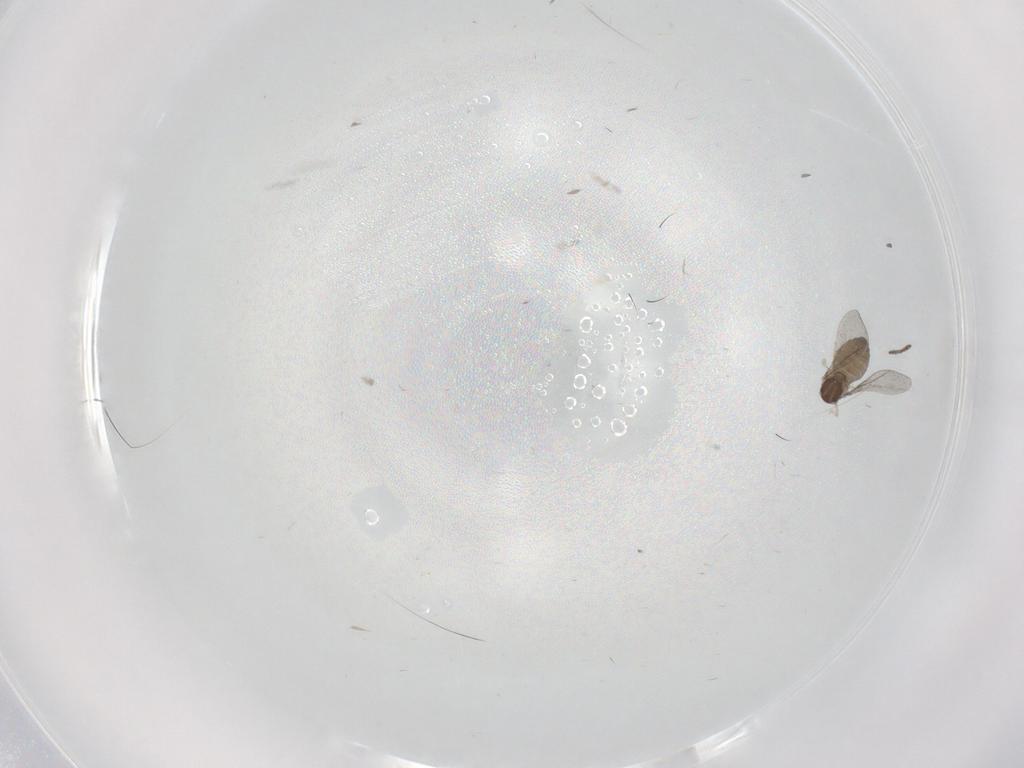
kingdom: Animalia
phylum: Arthropoda
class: Insecta
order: Diptera
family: Cecidomyiidae
